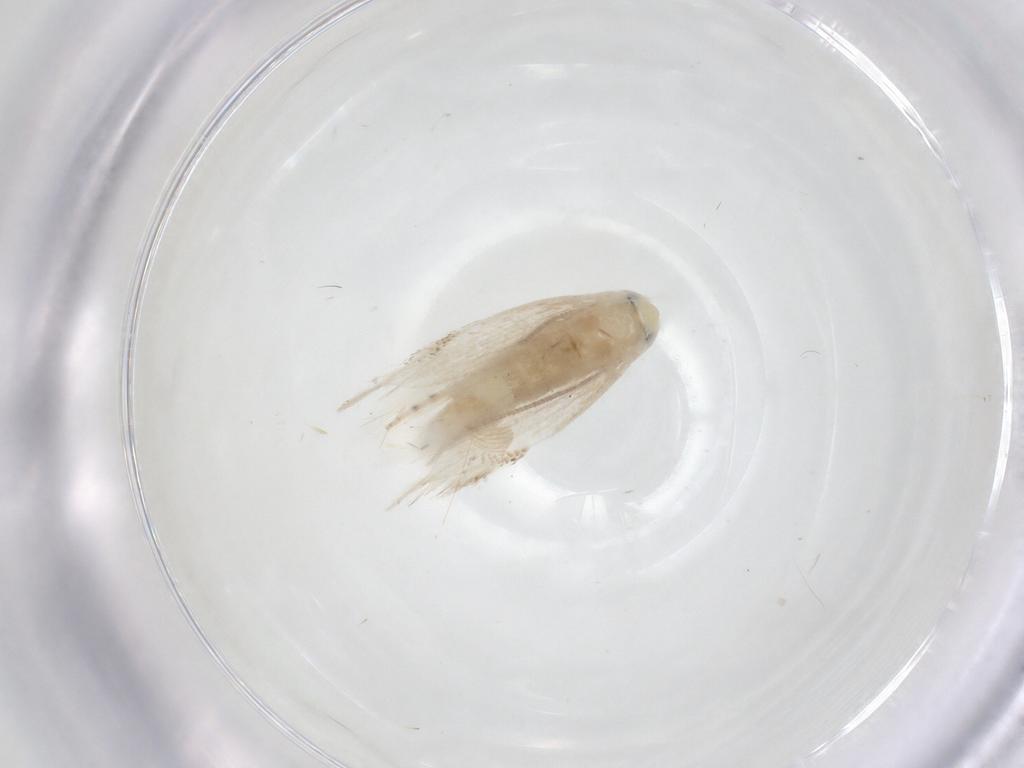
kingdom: Animalia
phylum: Arthropoda
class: Insecta
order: Lepidoptera
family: Lyonetiidae
